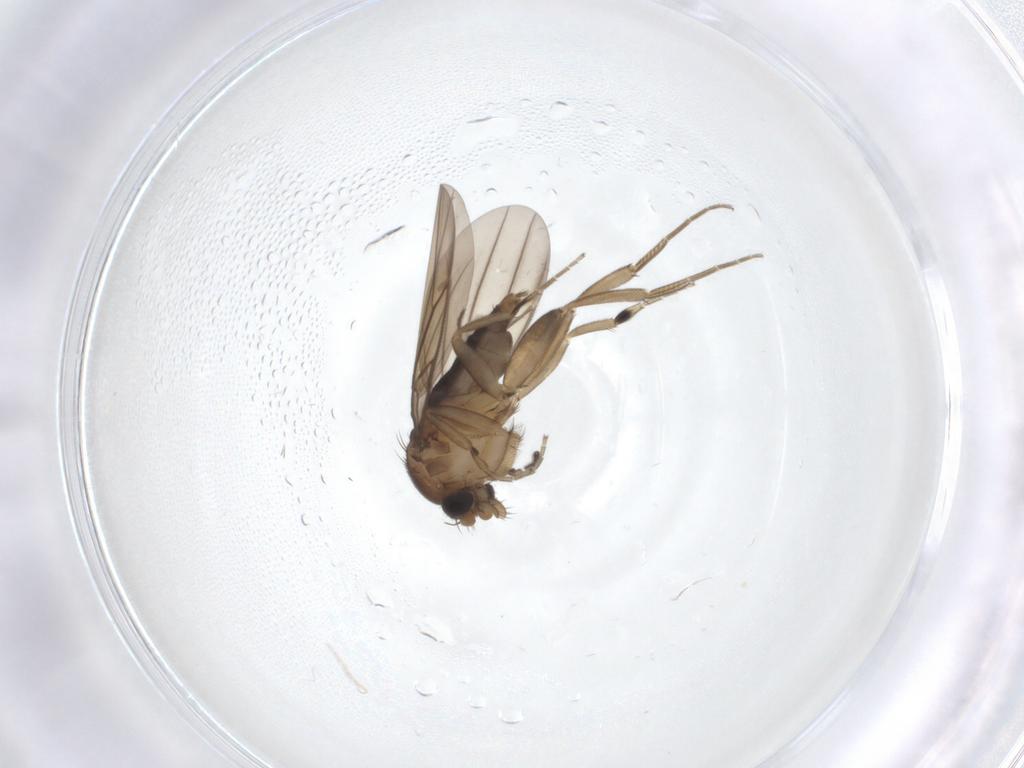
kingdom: Animalia
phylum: Arthropoda
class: Insecta
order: Diptera
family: Phoridae
